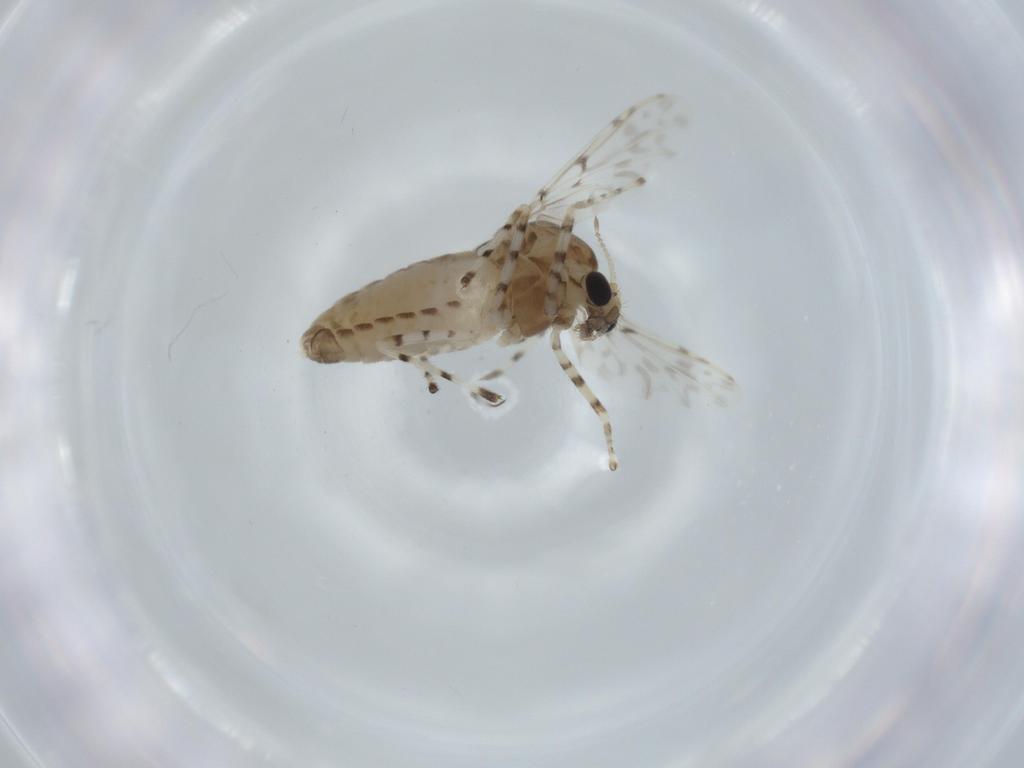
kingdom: Animalia
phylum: Arthropoda
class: Insecta
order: Diptera
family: Chironomidae
